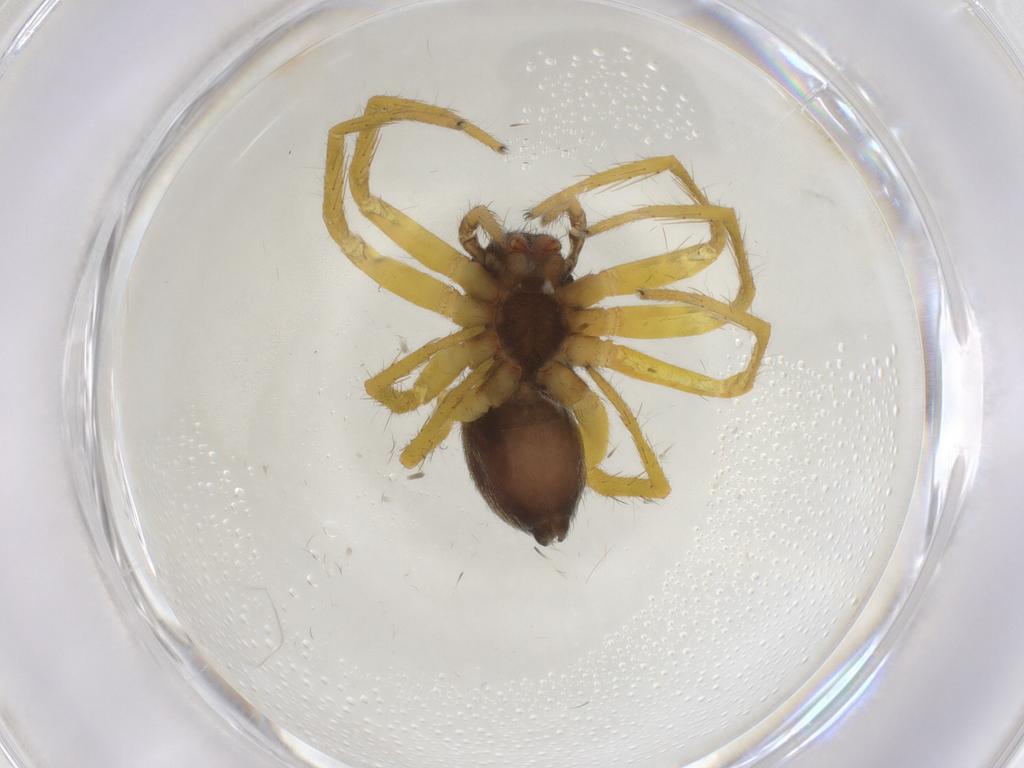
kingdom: Animalia
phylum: Arthropoda
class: Arachnida
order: Araneae
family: Trechaleidae
